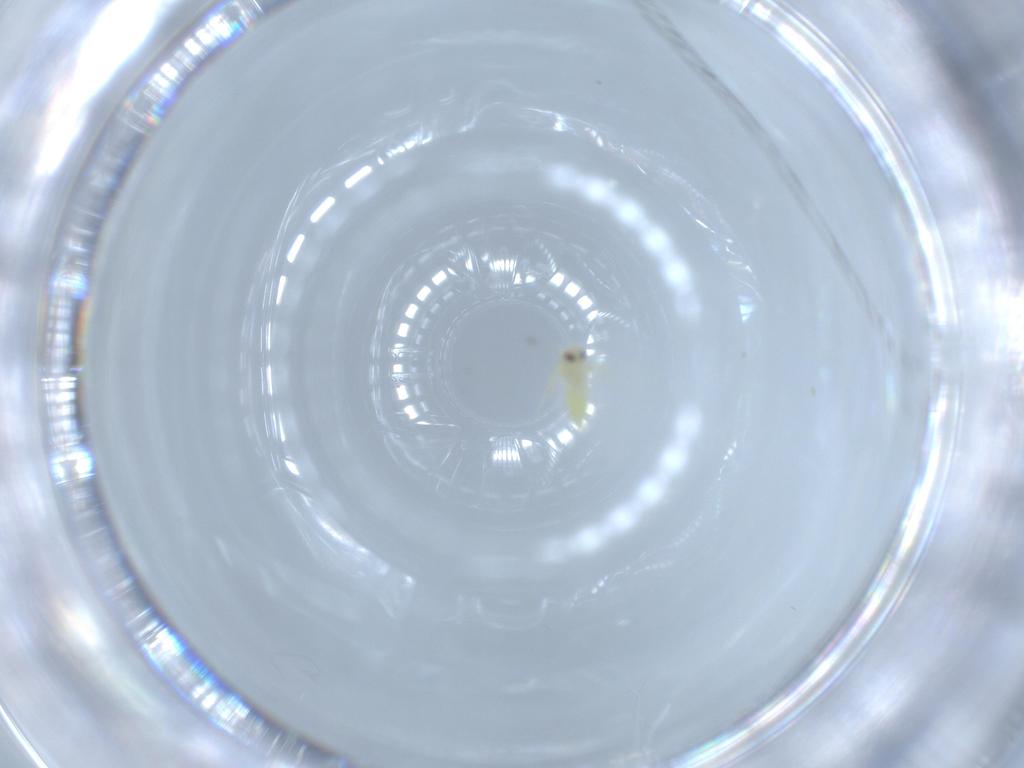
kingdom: Animalia
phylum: Arthropoda
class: Insecta
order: Hemiptera
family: Aleyrodidae
